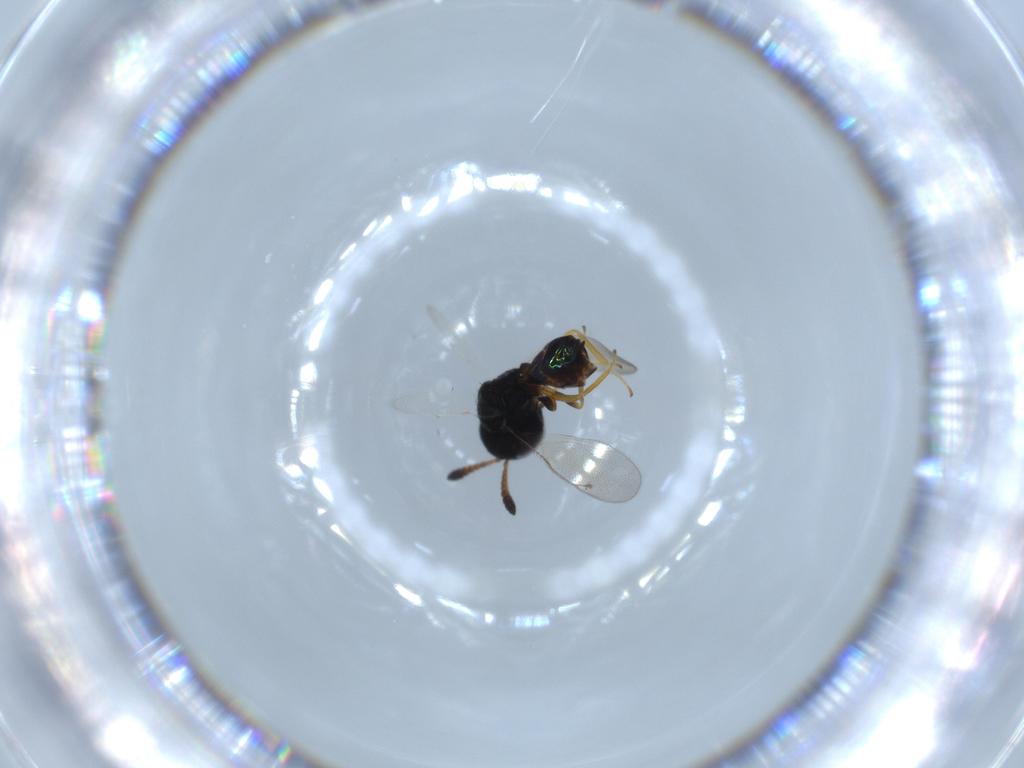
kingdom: Animalia
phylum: Arthropoda
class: Insecta
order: Hymenoptera
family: Pteromalidae
